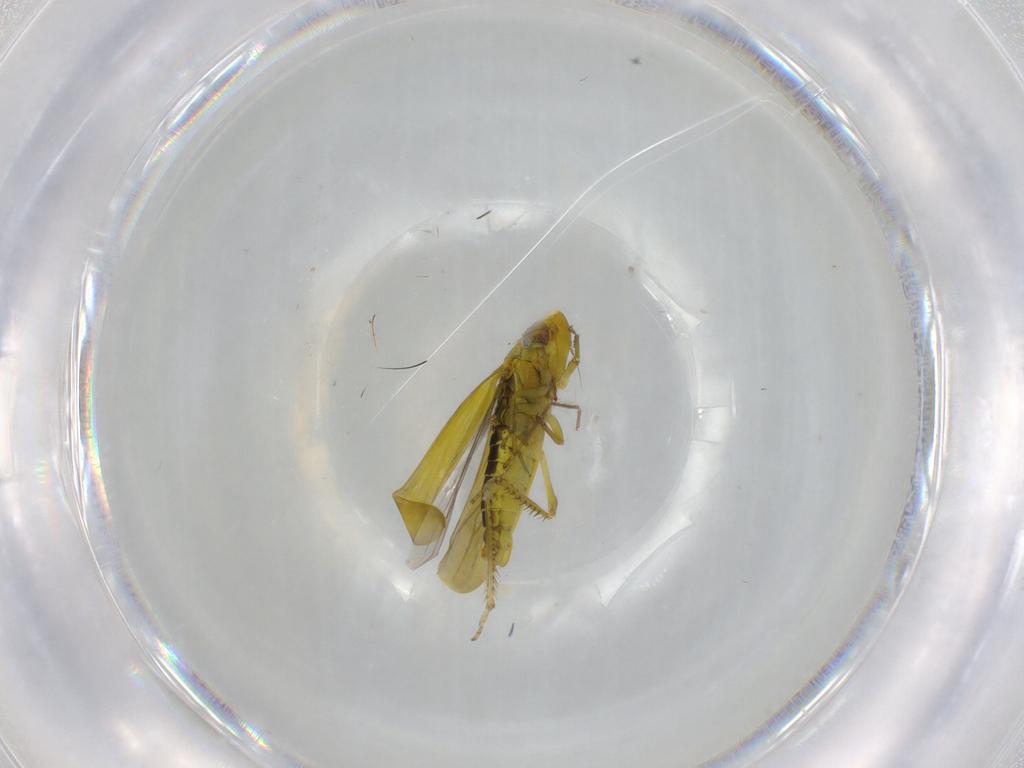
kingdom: Animalia
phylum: Arthropoda
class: Insecta
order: Hemiptera
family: Cicadellidae
